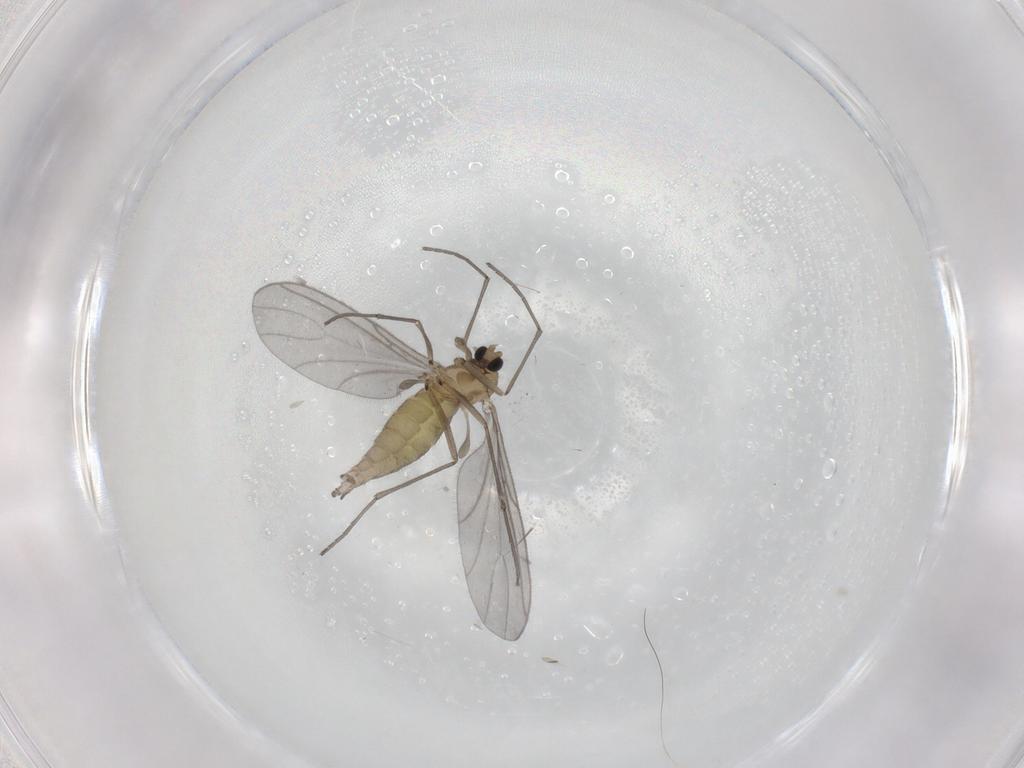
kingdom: Animalia
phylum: Arthropoda
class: Insecta
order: Diptera
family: Sciaridae
